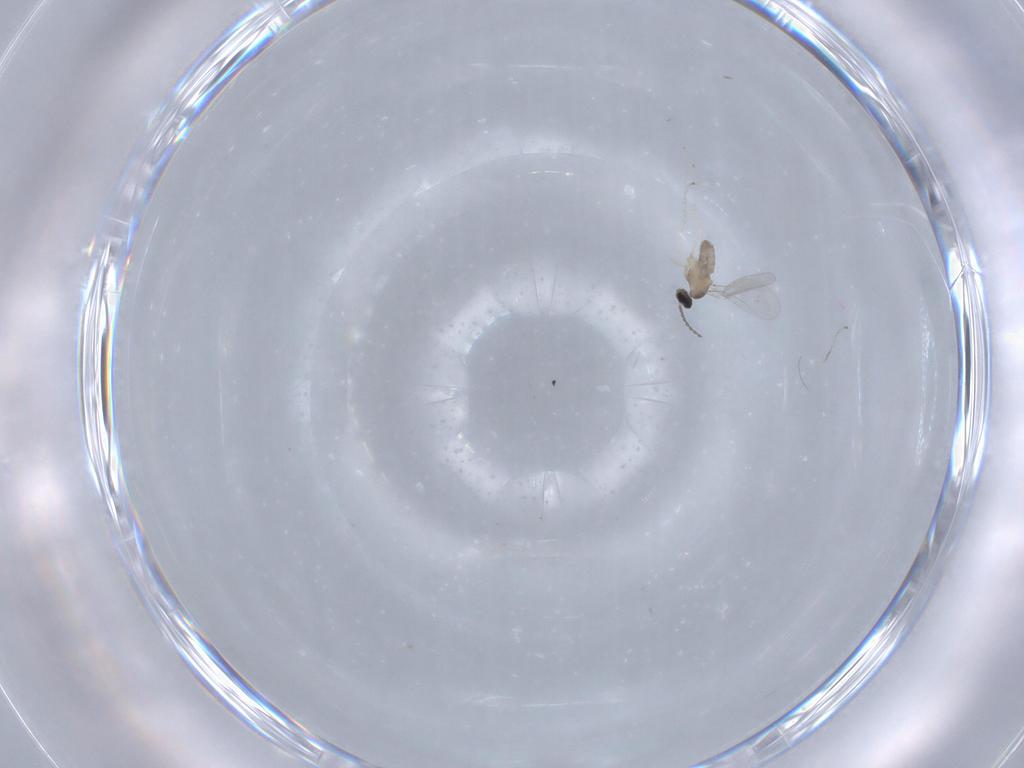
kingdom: Animalia
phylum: Arthropoda
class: Insecta
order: Diptera
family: Cecidomyiidae
